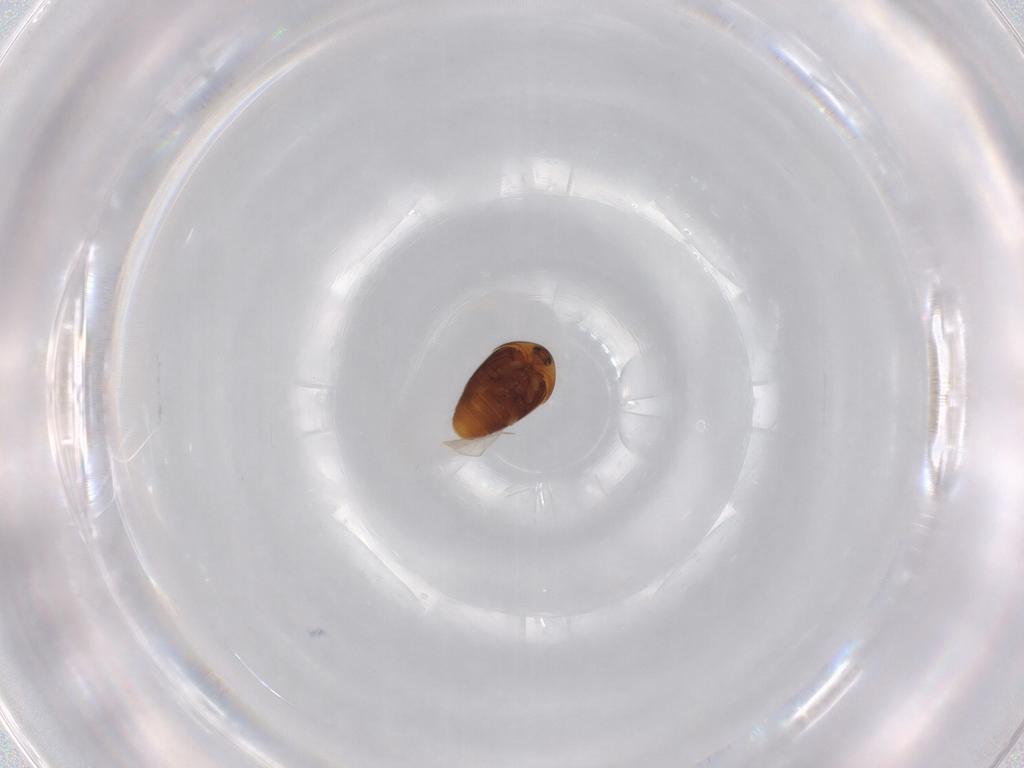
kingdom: Animalia
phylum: Arthropoda
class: Insecta
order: Coleoptera
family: Corylophidae
